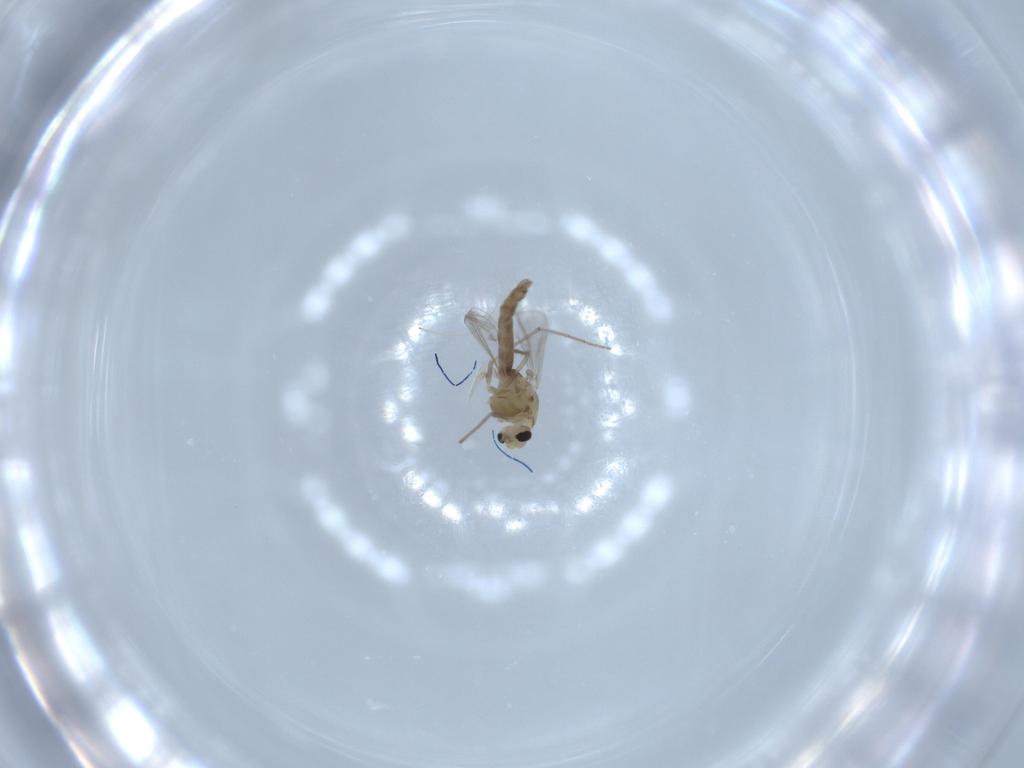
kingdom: Animalia
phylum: Arthropoda
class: Insecta
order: Diptera
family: Chironomidae
